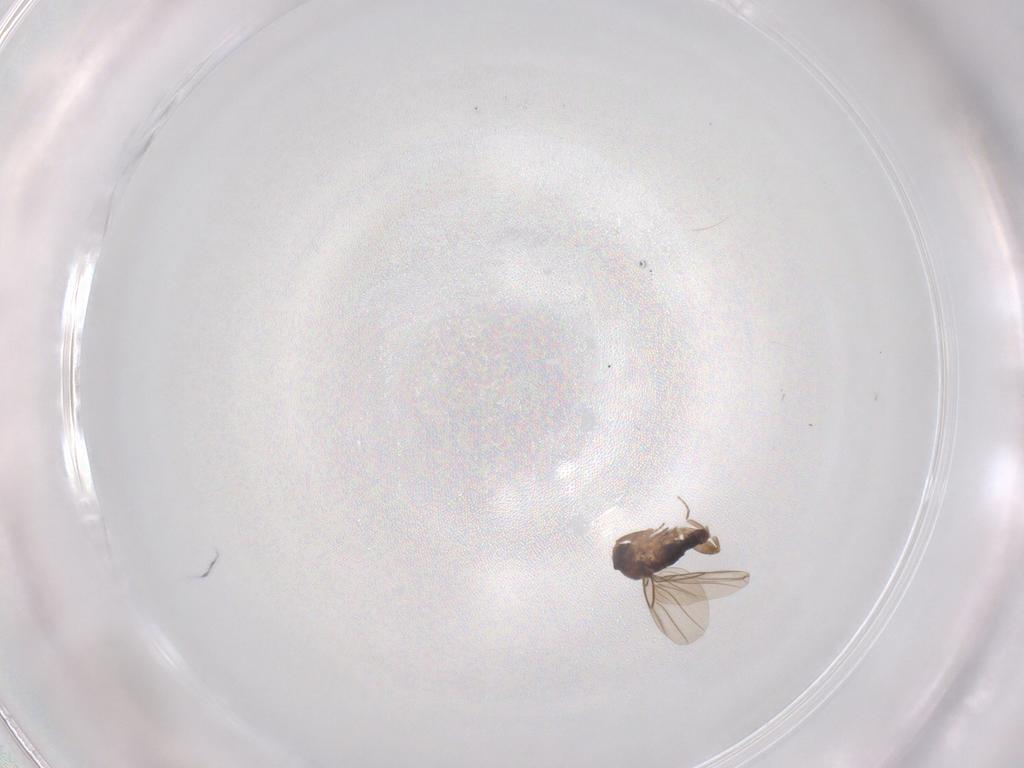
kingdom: Animalia
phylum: Arthropoda
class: Insecta
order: Diptera
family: Phoridae
